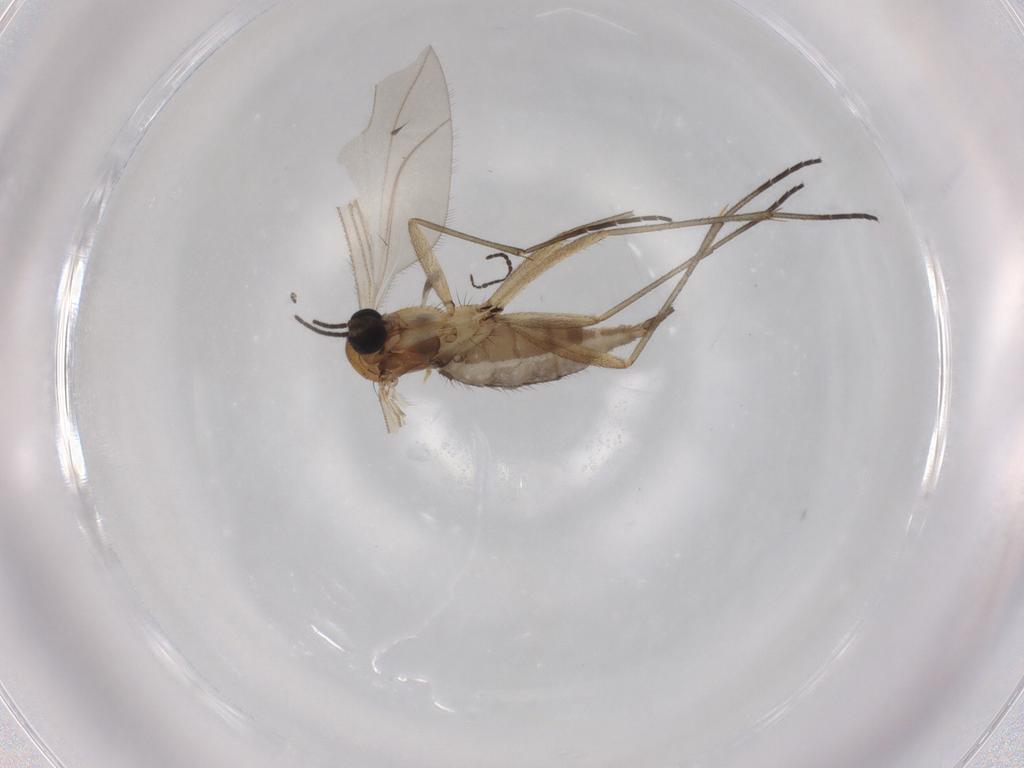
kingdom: Animalia
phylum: Arthropoda
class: Insecta
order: Diptera
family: Sciaridae
